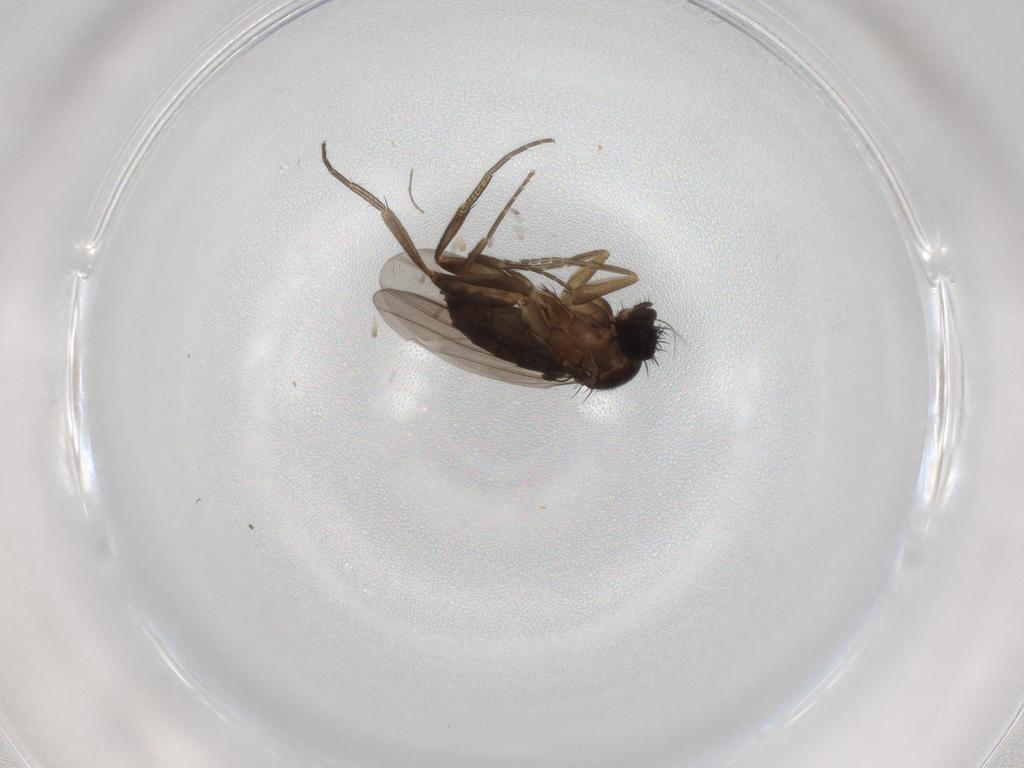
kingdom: Animalia
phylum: Arthropoda
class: Insecta
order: Diptera
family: Phoridae
